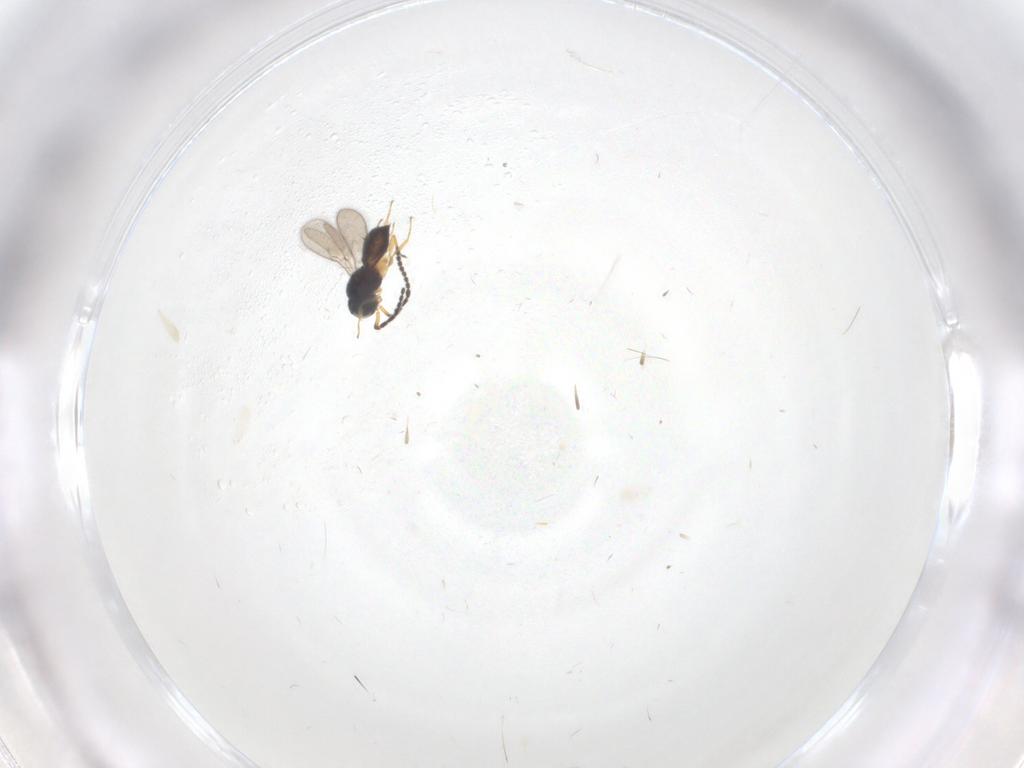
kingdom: Animalia
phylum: Arthropoda
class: Insecta
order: Hymenoptera
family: Scelionidae
